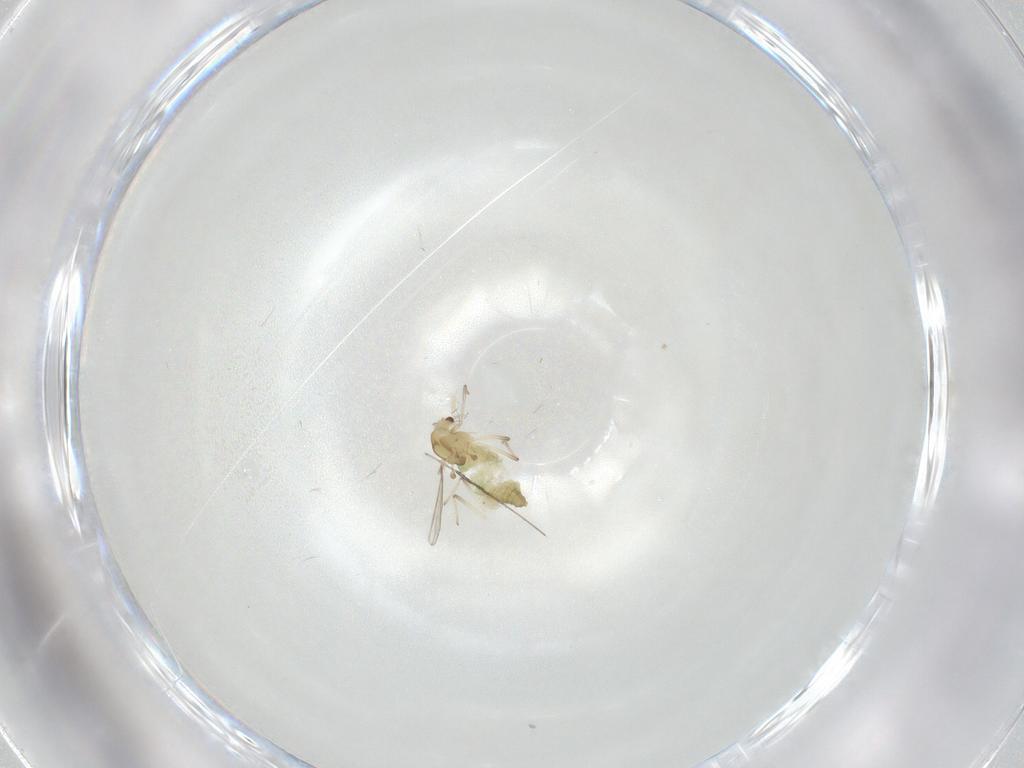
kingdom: Animalia
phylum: Arthropoda
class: Insecta
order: Diptera
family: Chironomidae
